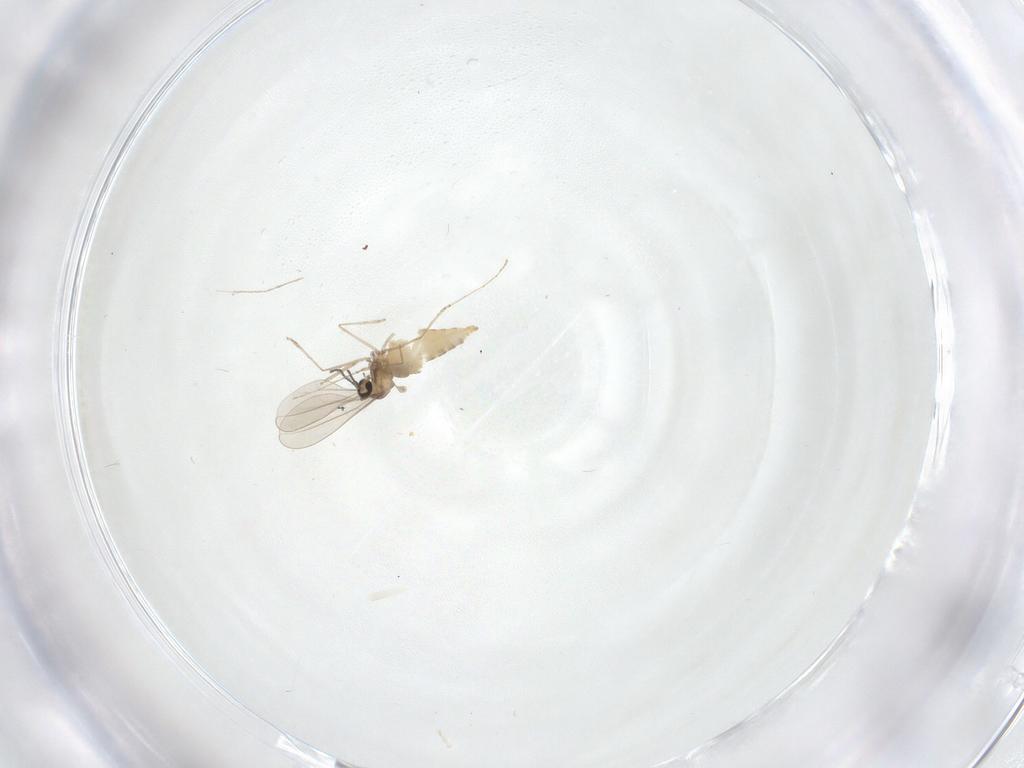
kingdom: Animalia
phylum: Arthropoda
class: Insecta
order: Diptera
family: Cecidomyiidae
